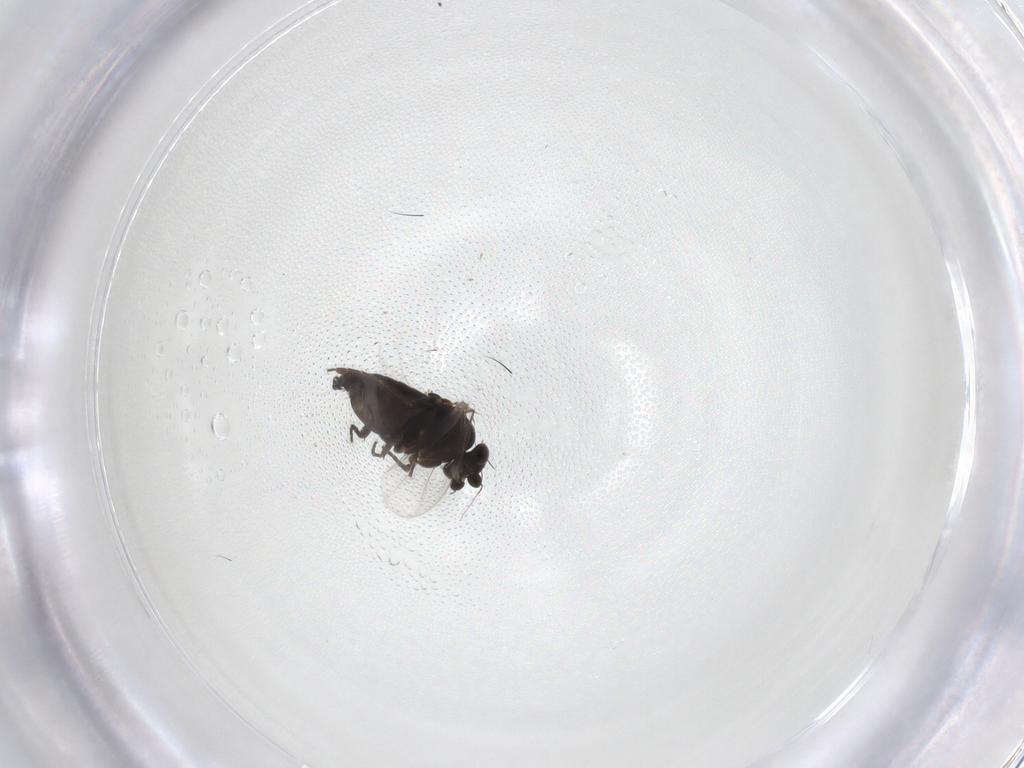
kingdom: Animalia
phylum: Arthropoda
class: Insecta
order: Diptera
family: Phoridae
